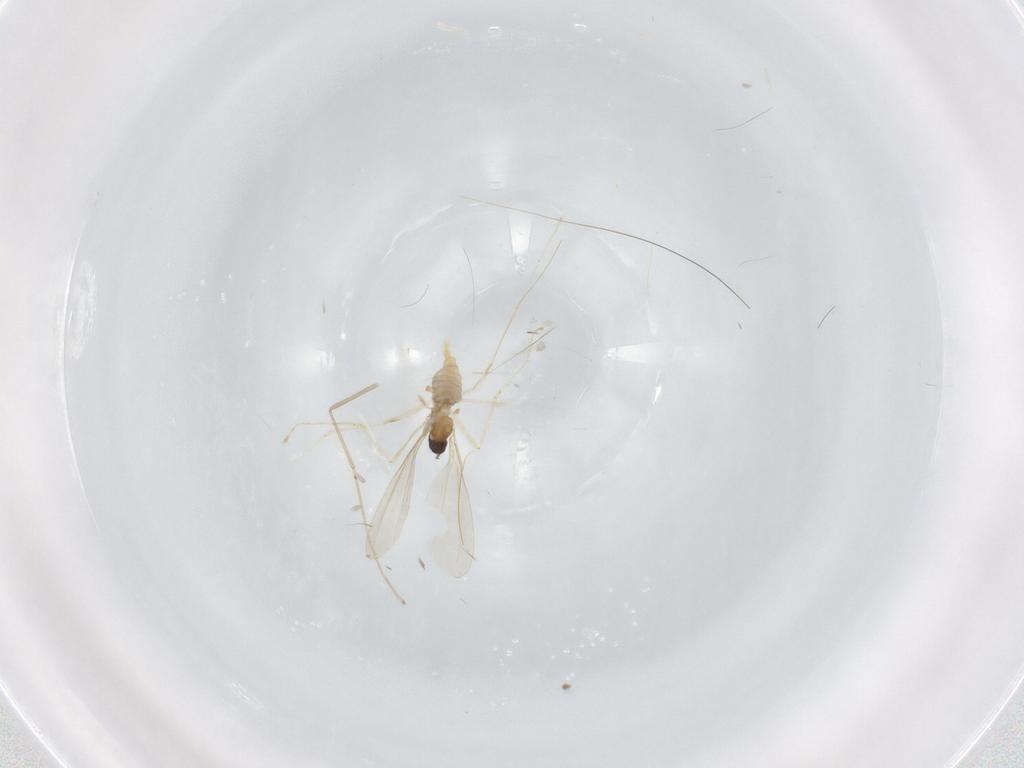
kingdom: Animalia
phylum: Arthropoda
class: Insecta
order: Diptera
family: Cecidomyiidae
